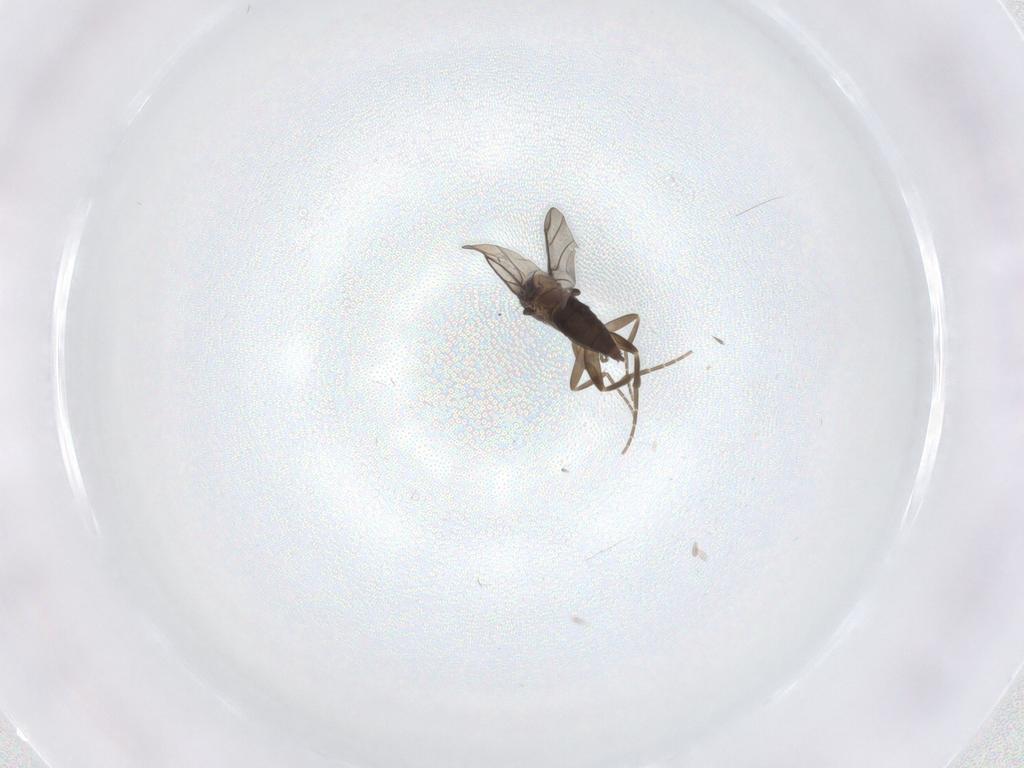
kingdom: Animalia
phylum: Arthropoda
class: Insecta
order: Diptera
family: Phoridae
